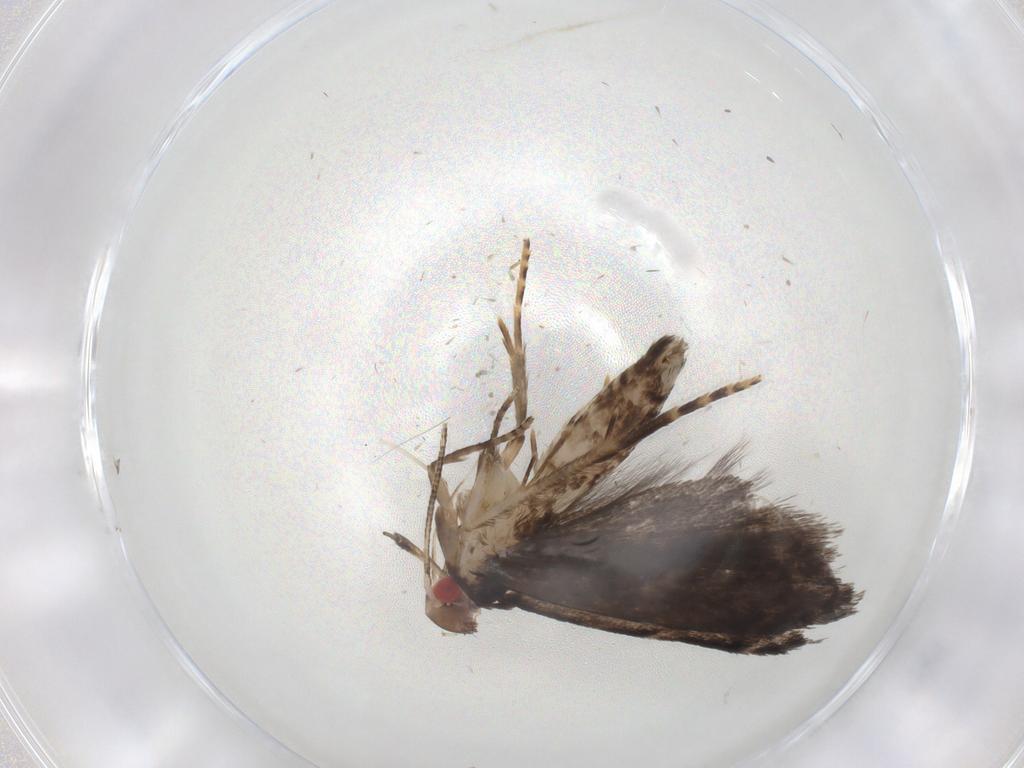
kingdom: Animalia
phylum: Arthropoda
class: Insecta
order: Lepidoptera
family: Gelechiidae
